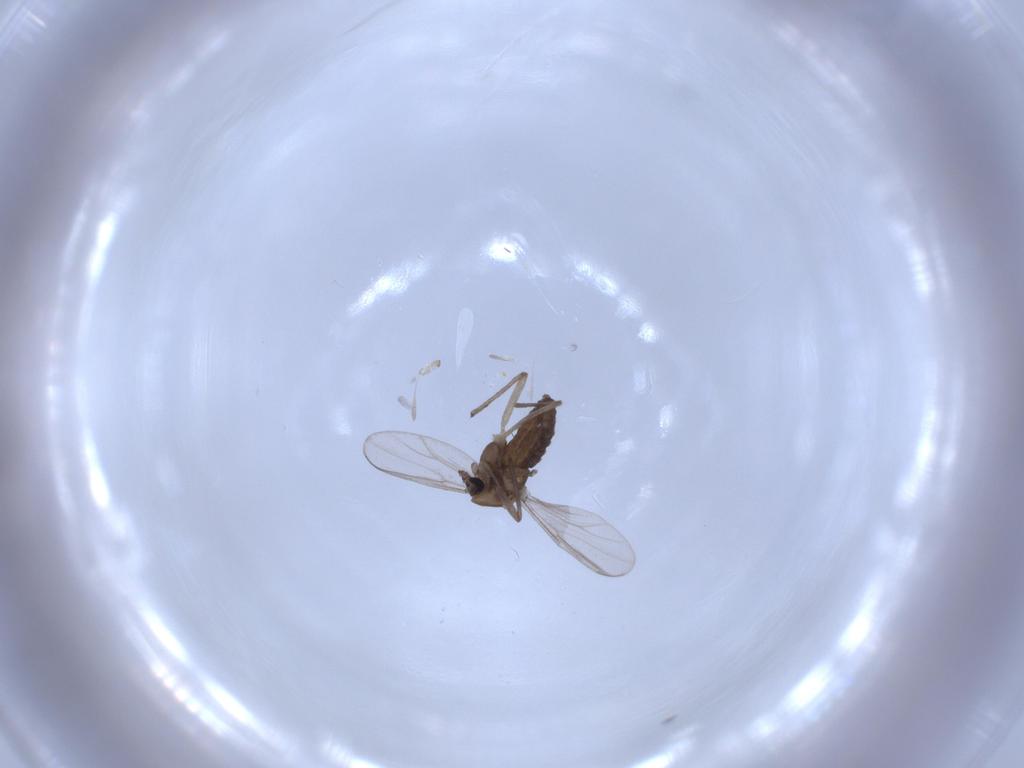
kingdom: Animalia
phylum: Arthropoda
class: Insecta
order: Diptera
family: Chironomidae
